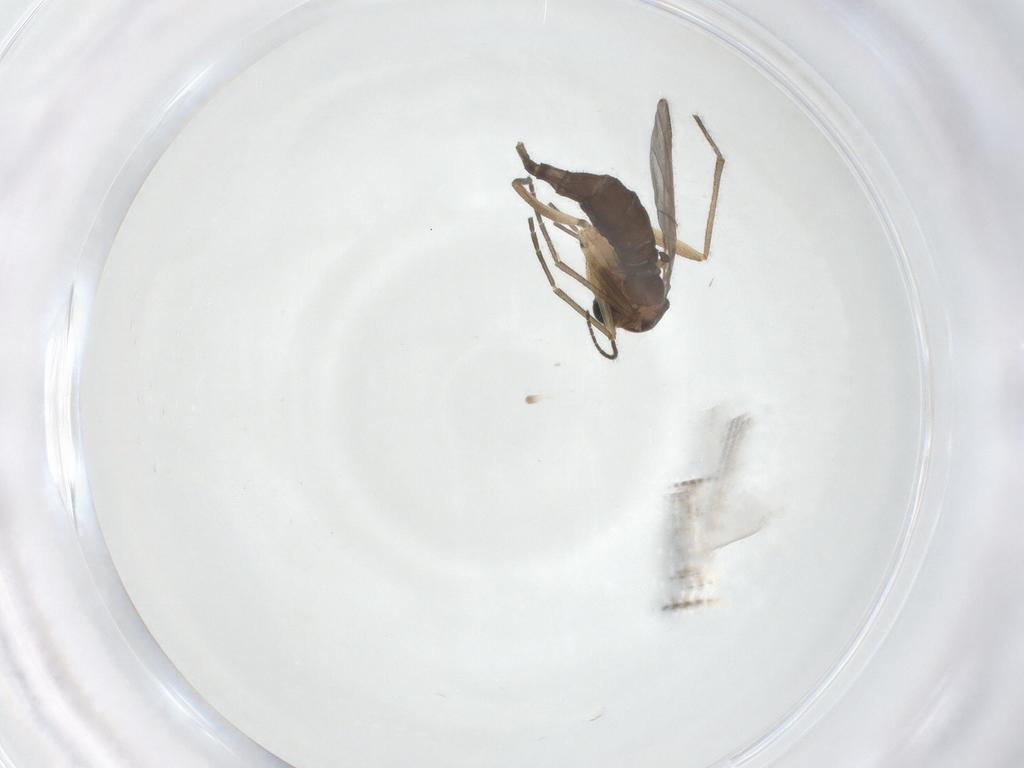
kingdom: Animalia
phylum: Arthropoda
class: Insecta
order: Diptera
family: Sciaridae
